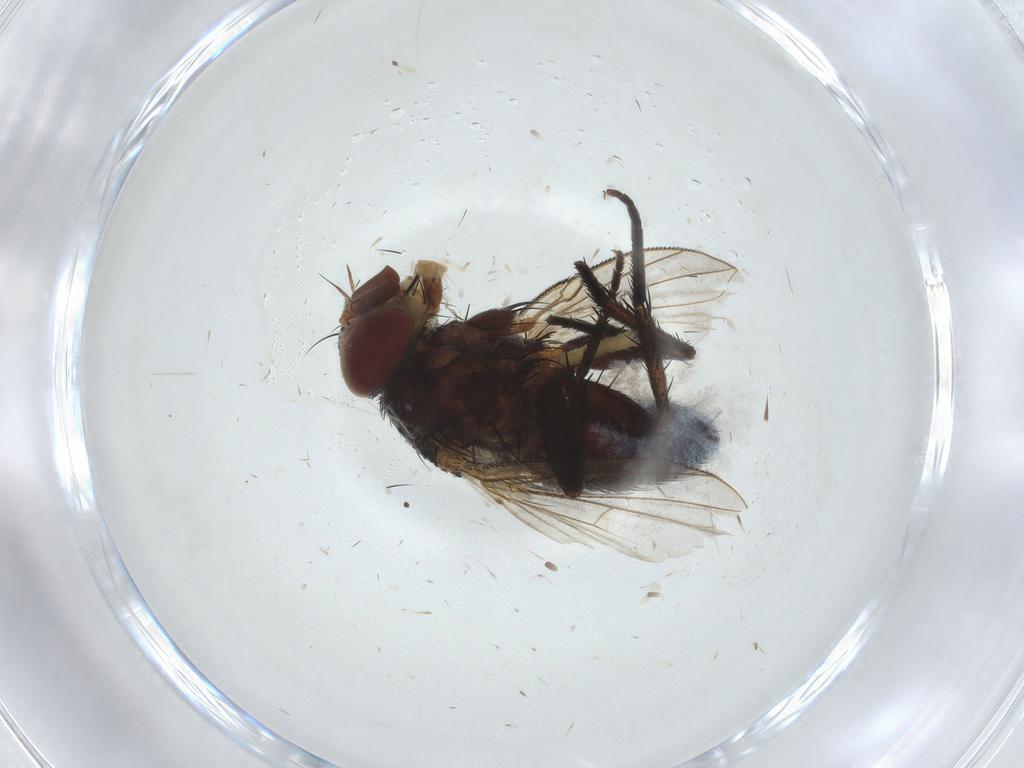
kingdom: Animalia
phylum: Arthropoda
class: Insecta
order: Diptera
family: Tachinidae
